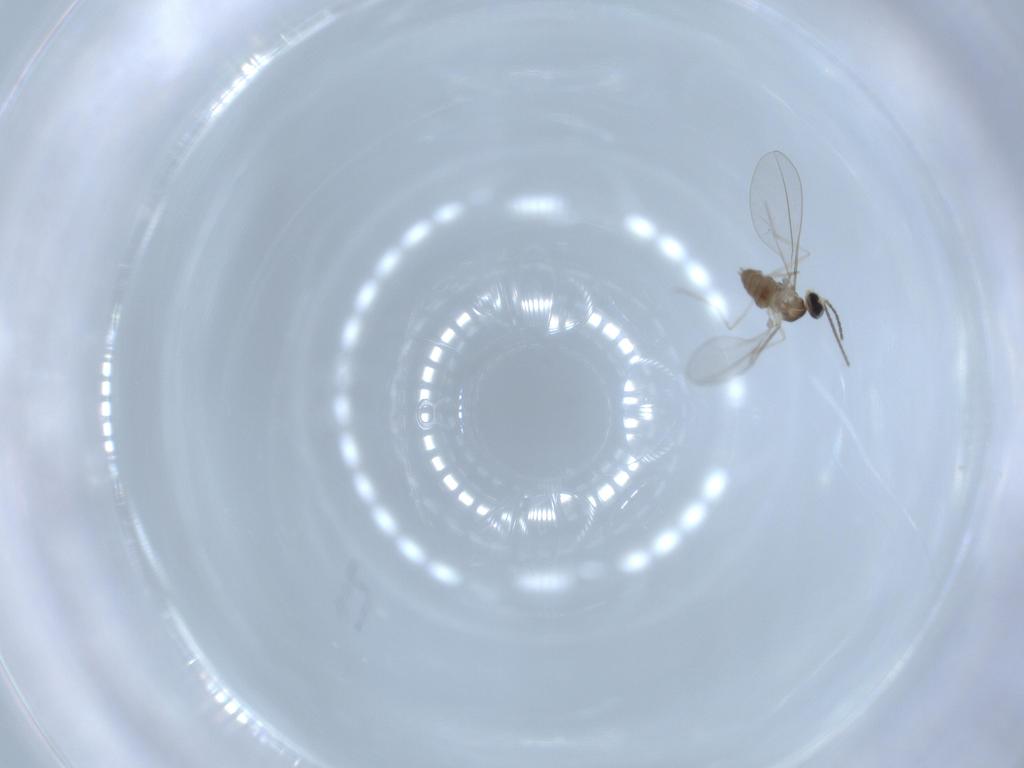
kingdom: Animalia
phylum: Arthropoda
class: Insecta
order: Diptera
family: Cecidomyiidae
